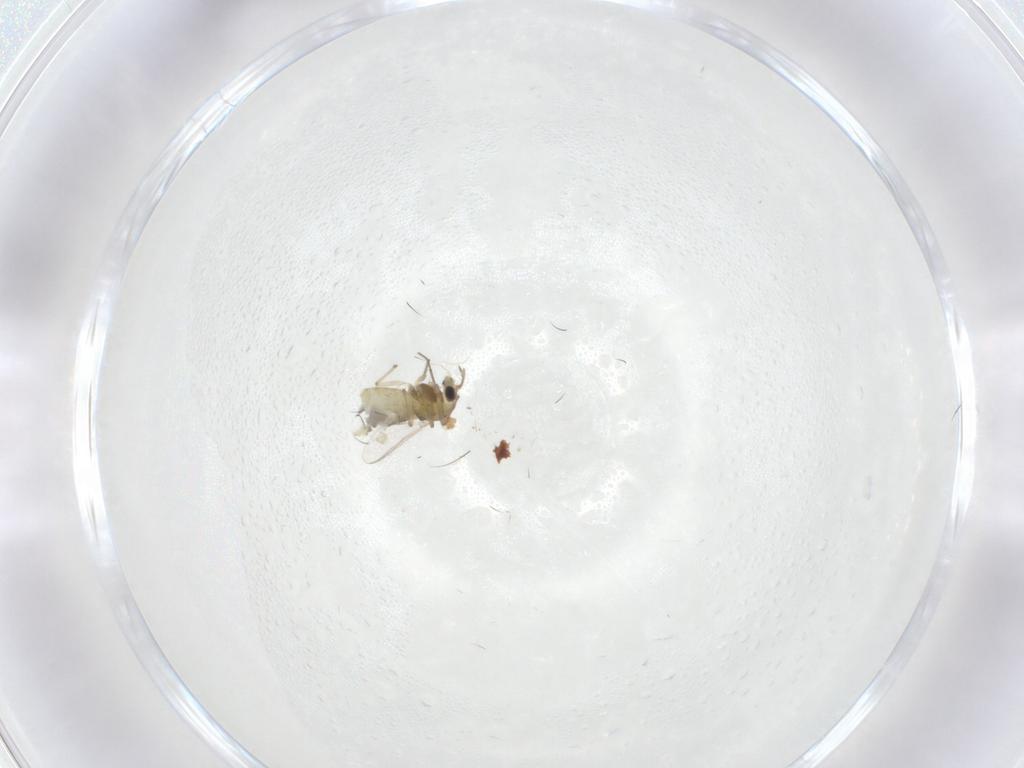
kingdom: Animalia
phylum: Arthropoda
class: Insecta
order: Diptera
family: Chironomidae
